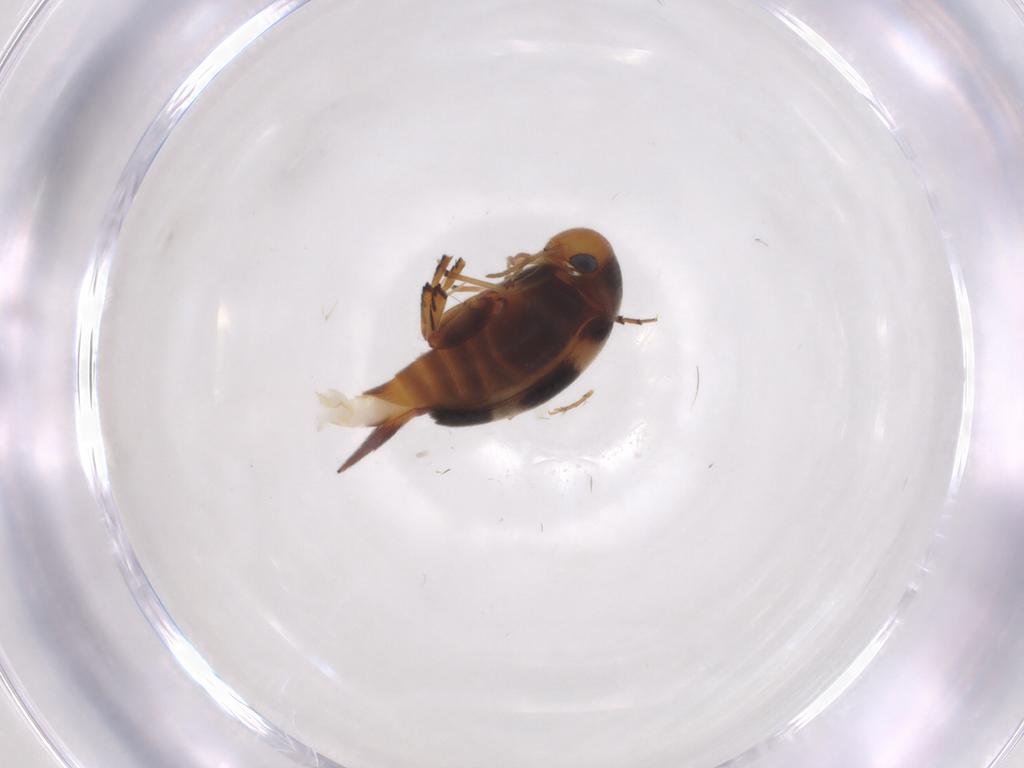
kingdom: Animalia
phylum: Arthropoda
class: Insecta
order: Coleoptera
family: Mordellidae
